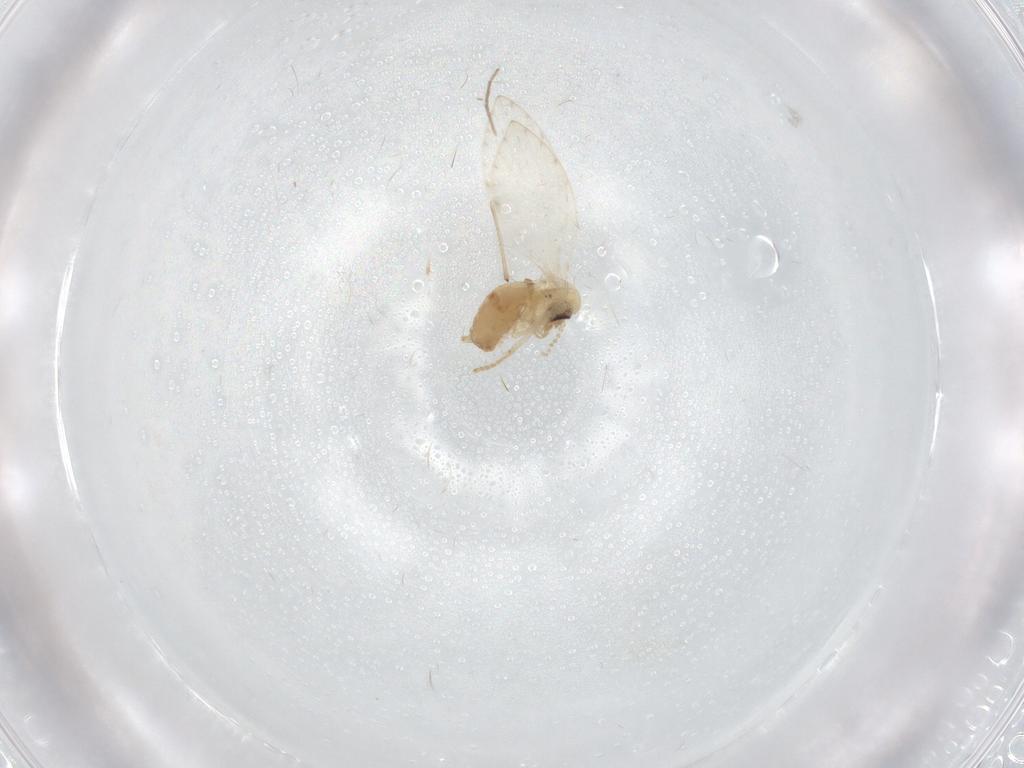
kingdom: Animalia
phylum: Arthropoda
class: Insecta
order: Diptera
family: Psychodidae
